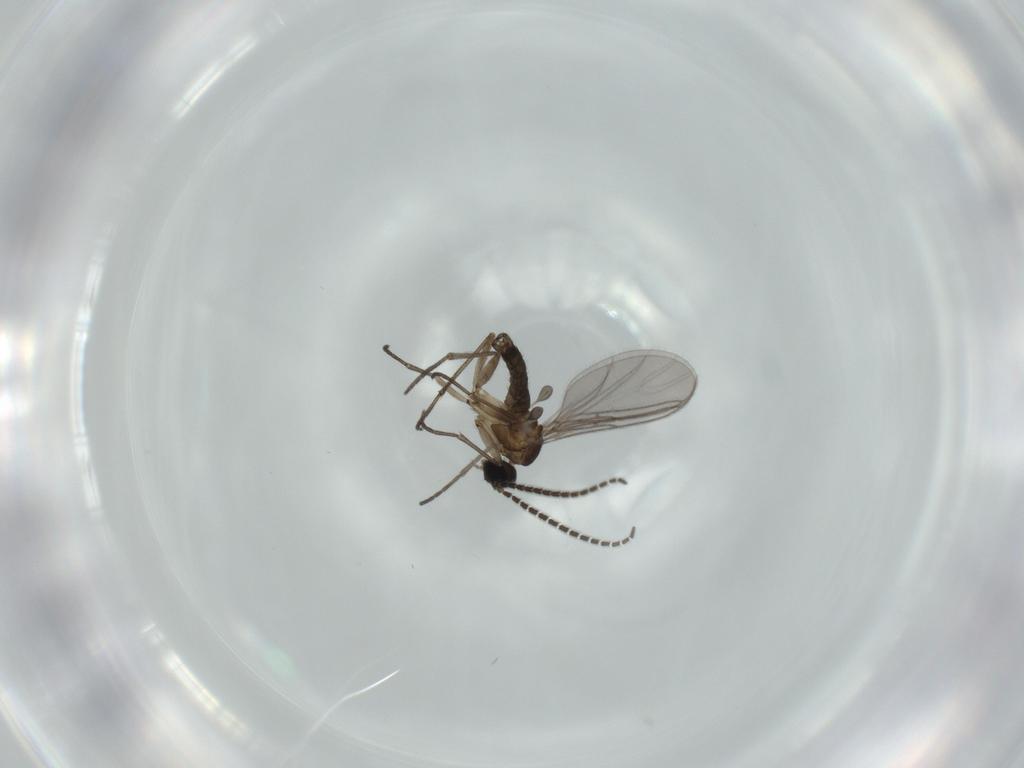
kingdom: Animalia
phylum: Arthropoda
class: Insecta
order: Diptera
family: Sciaridae
